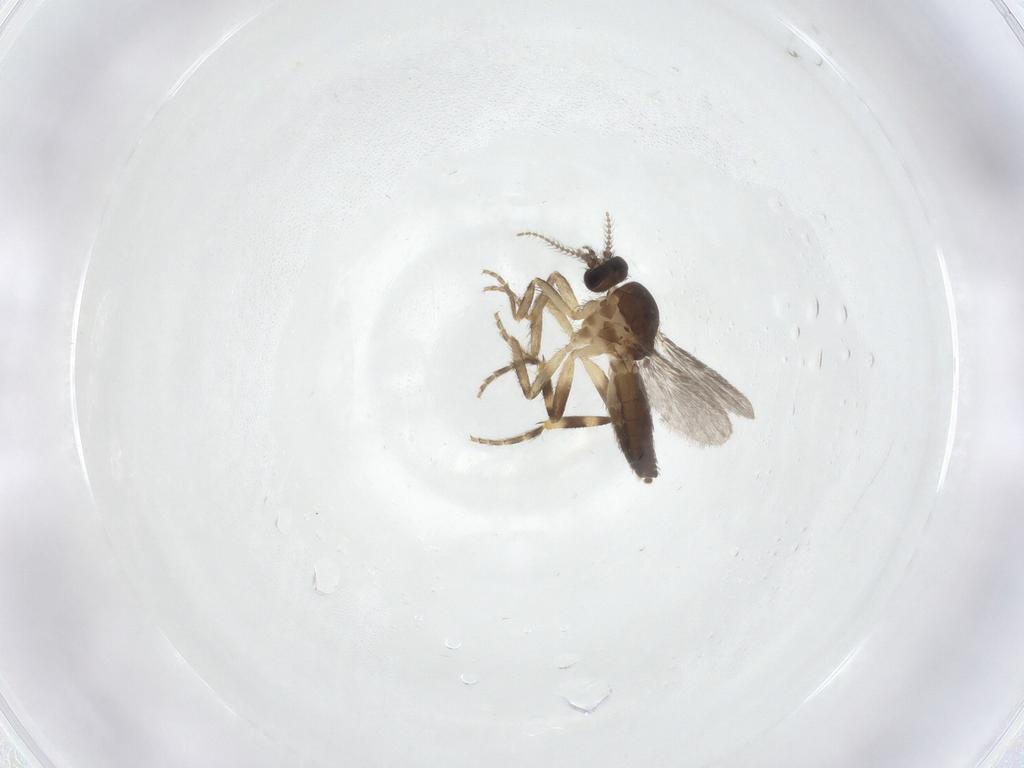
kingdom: Animalia
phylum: Arthropoda
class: Insecta
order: Diptera
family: Ceratopogonidae
